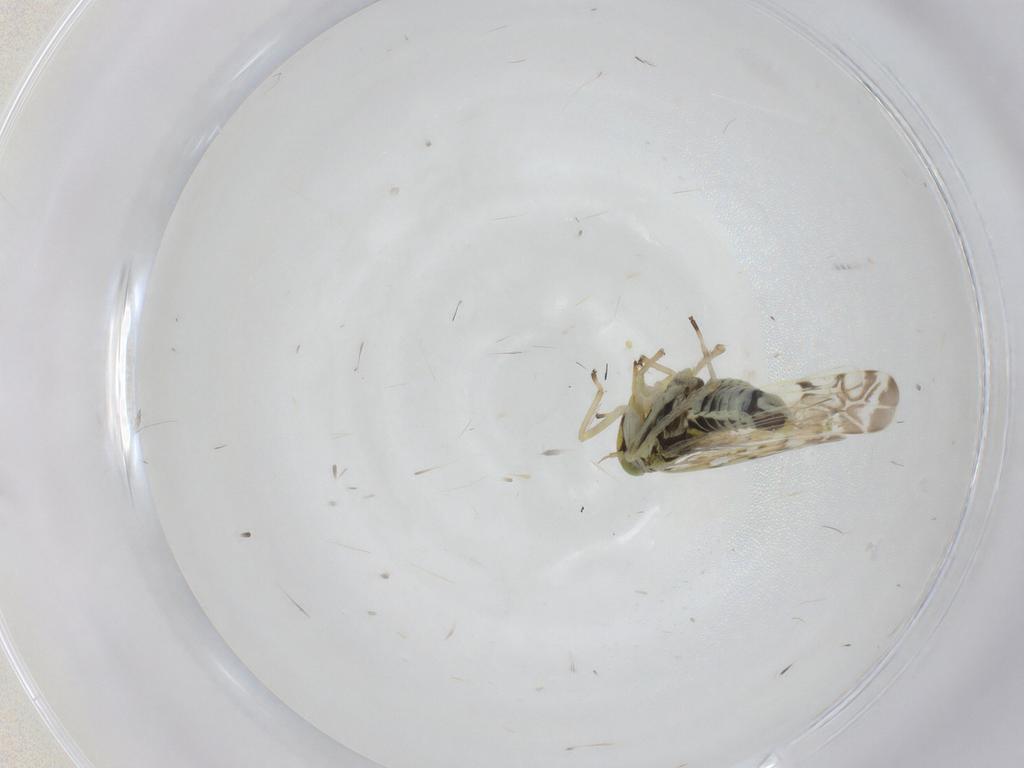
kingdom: Animalia
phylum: Arthropoda
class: Insecta
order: Hemiptera
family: Cicadellidae
